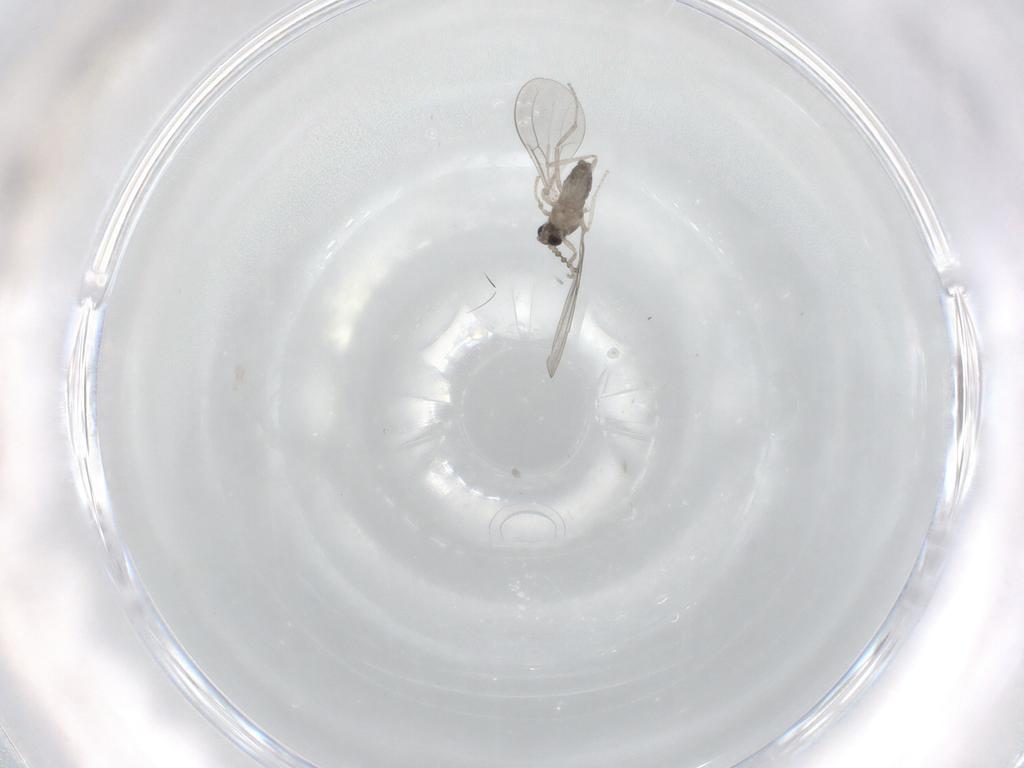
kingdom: Animalia
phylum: Arthropoda
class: Insecta
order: Diptera
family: Cecidomyiidae
